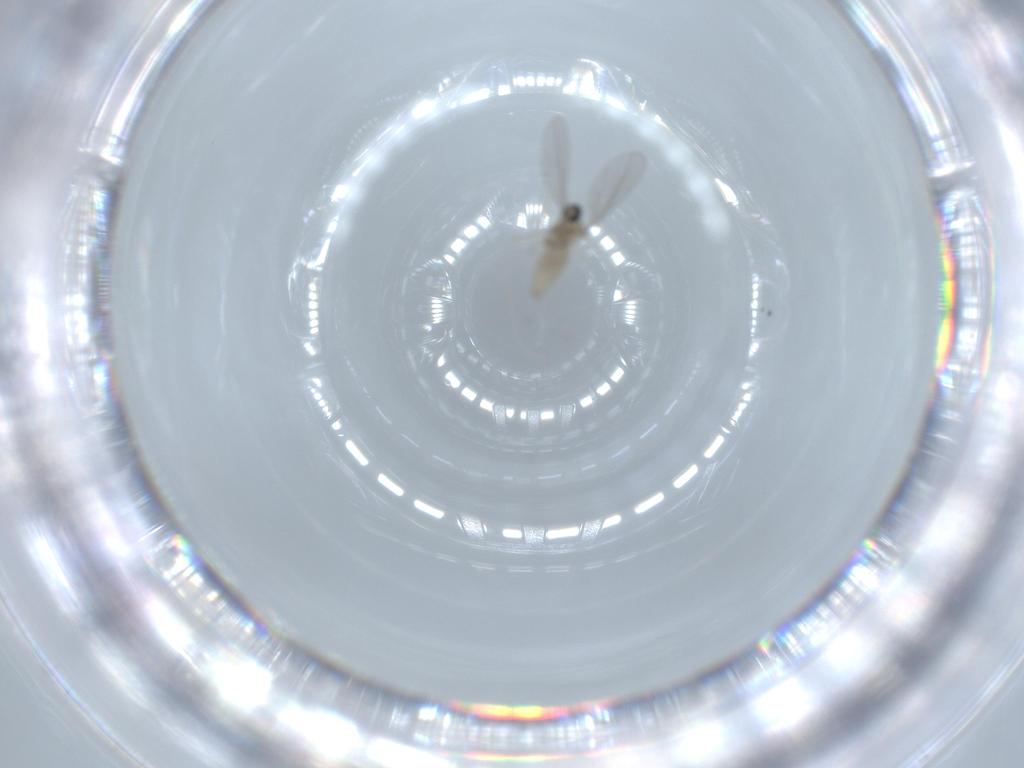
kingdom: Animalia
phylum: Arthropoda
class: Insecta
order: Diptera
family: Cecidomyiidae
